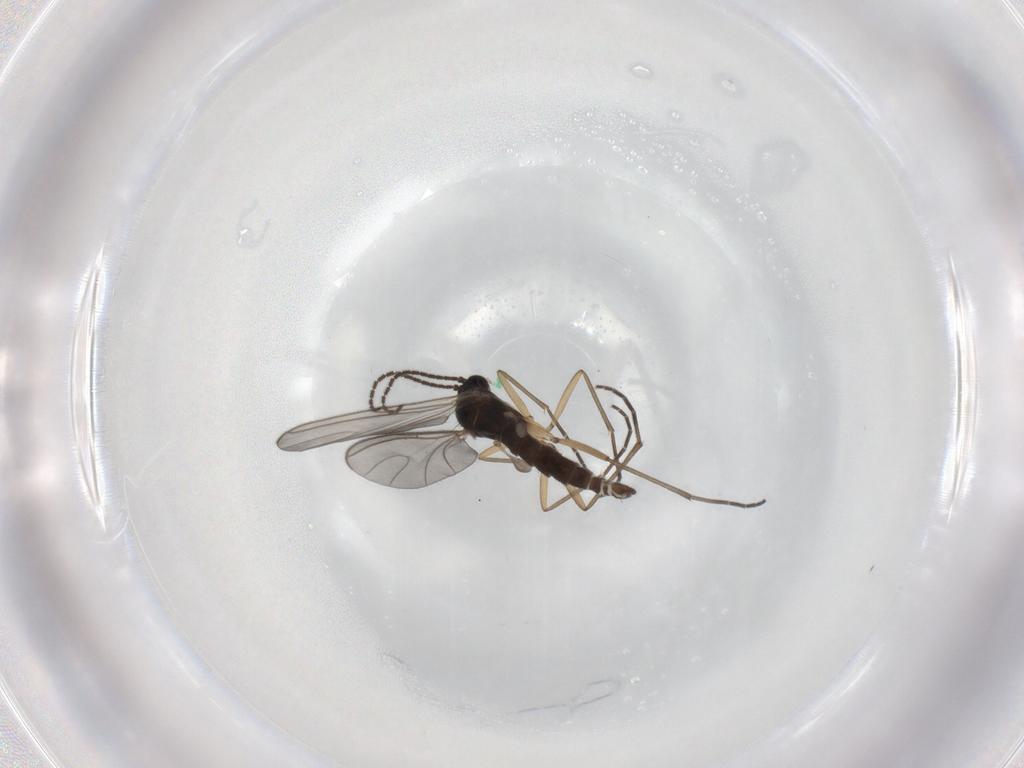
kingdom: Animalia
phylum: Arthropoda
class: Insecta
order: Diptera
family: Sciaridae
